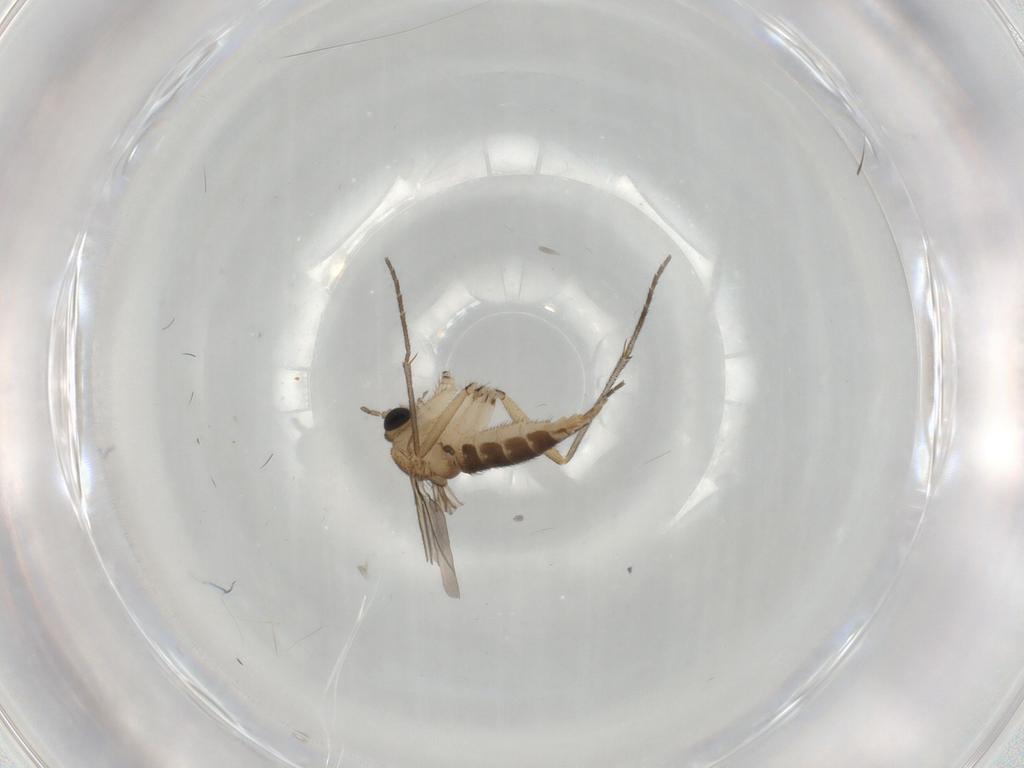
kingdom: Animalia
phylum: Arthropoda
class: Insecta
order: Diptera
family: Sciaridae
